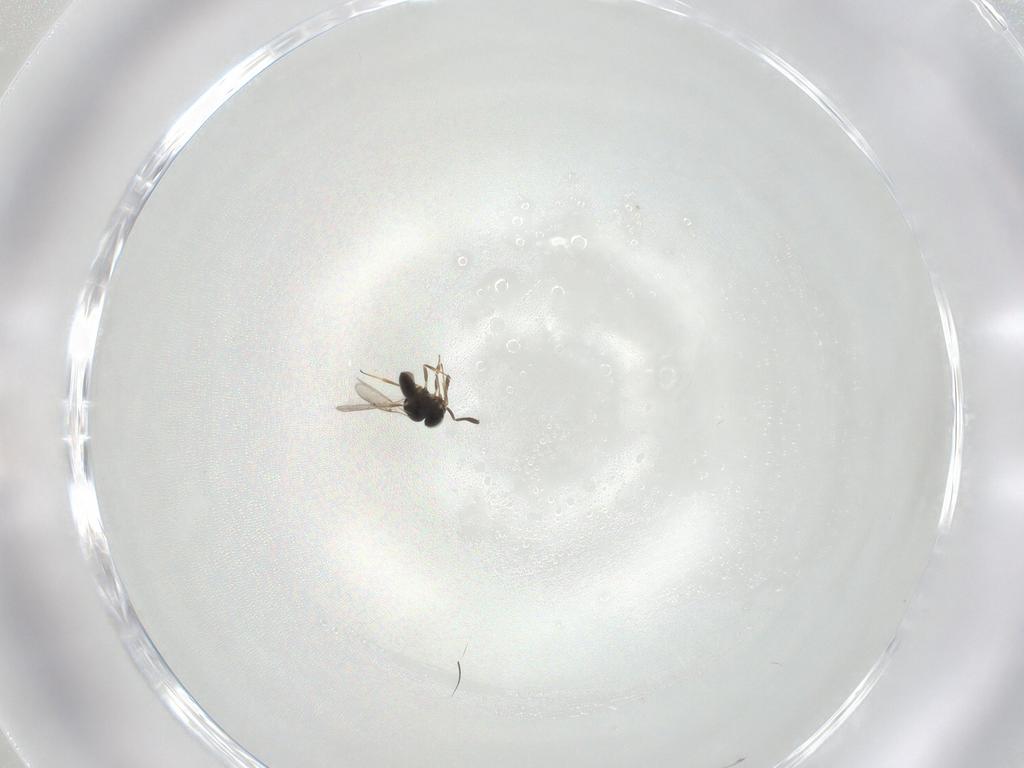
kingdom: Animalia
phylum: Arthropoda
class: Insecta
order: Hymenoptera
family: Scelionidae
